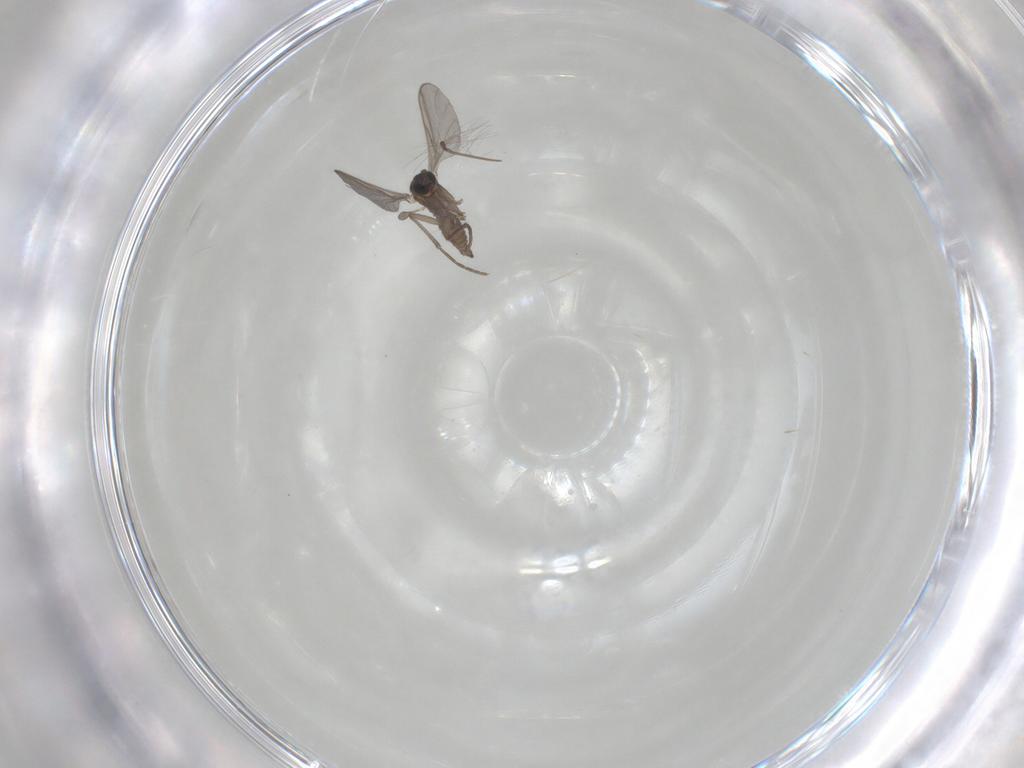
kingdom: Animalia
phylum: Arthropoda
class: Insecta
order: Diptera
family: Sciaridae
